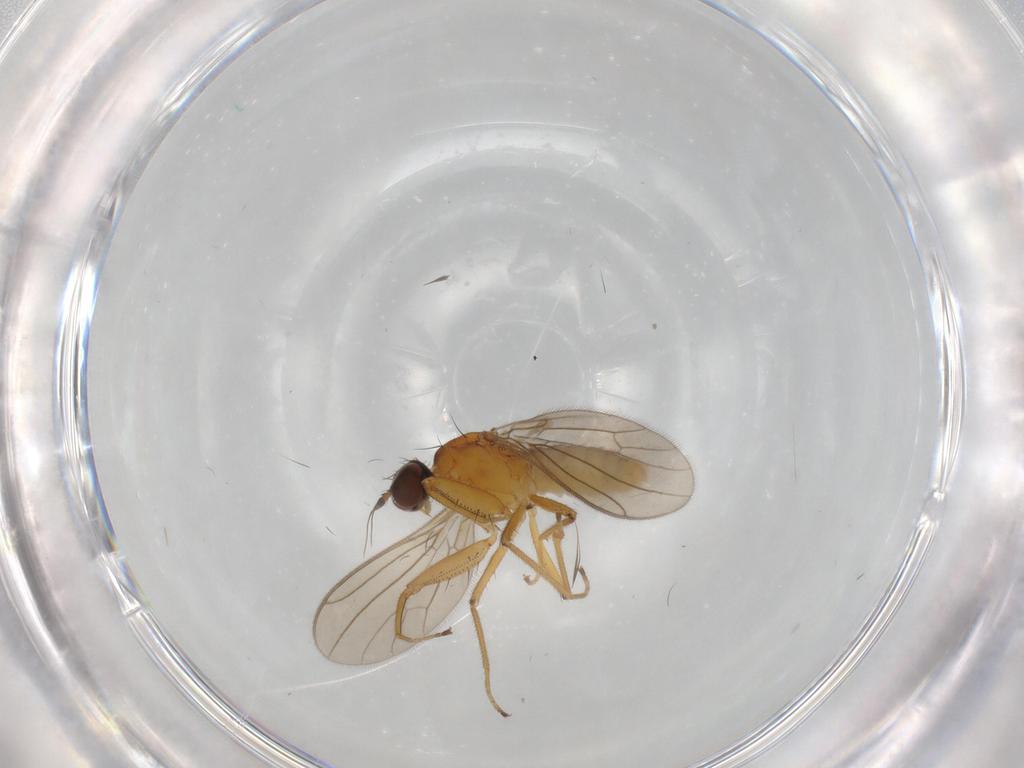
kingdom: Animalia
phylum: Arthropoda
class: Insecta
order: Diptera
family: Empididae
